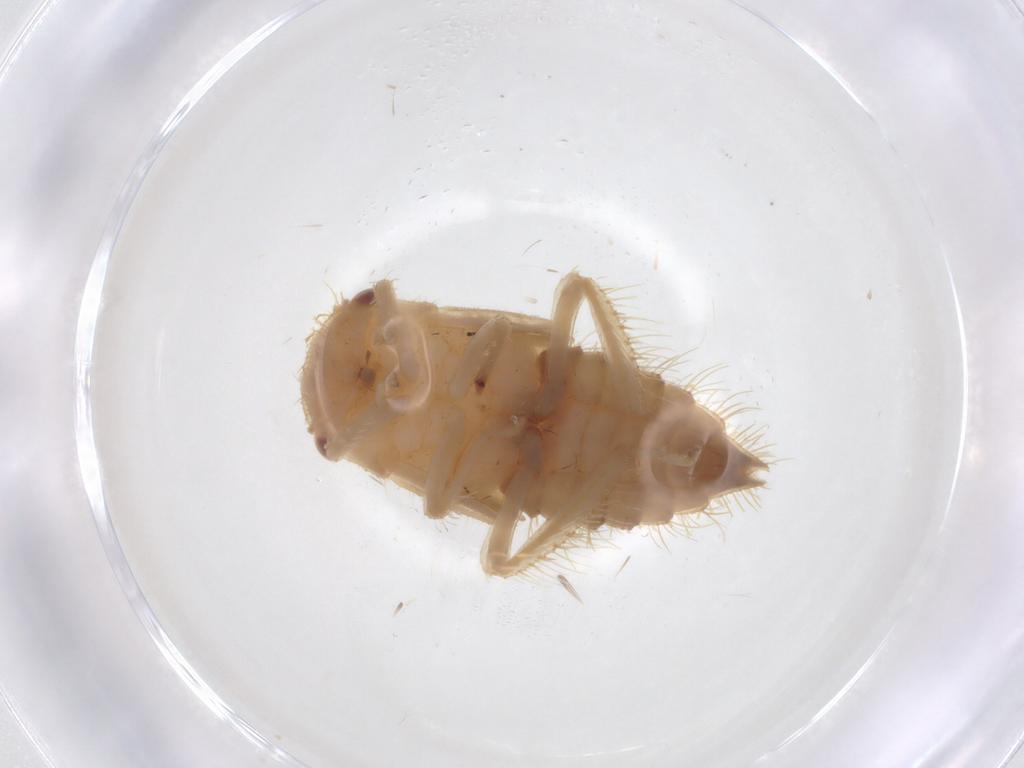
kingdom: Animalia
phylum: Arthropoda
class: Insecta
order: Hemiptera
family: Cicadellidae
